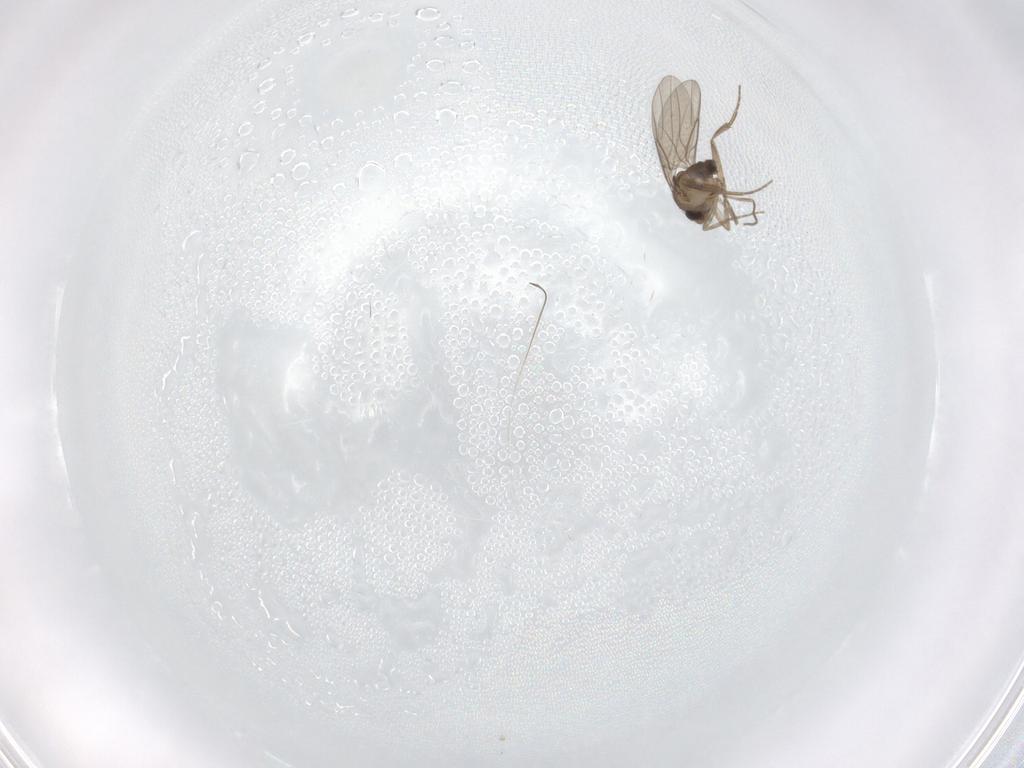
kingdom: Animalia
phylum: Arthropoda
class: Insecta
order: Diptera
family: Phoridae
